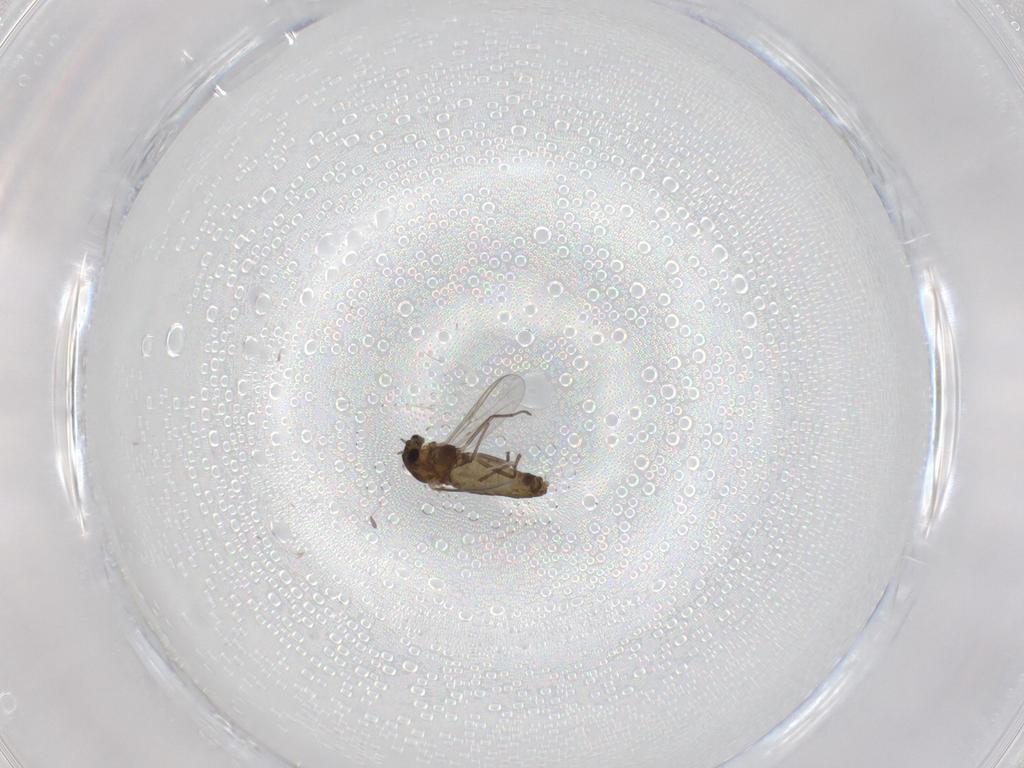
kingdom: Animalia
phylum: Arthropoda
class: Insecta
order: Diptera
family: Chironomidae
